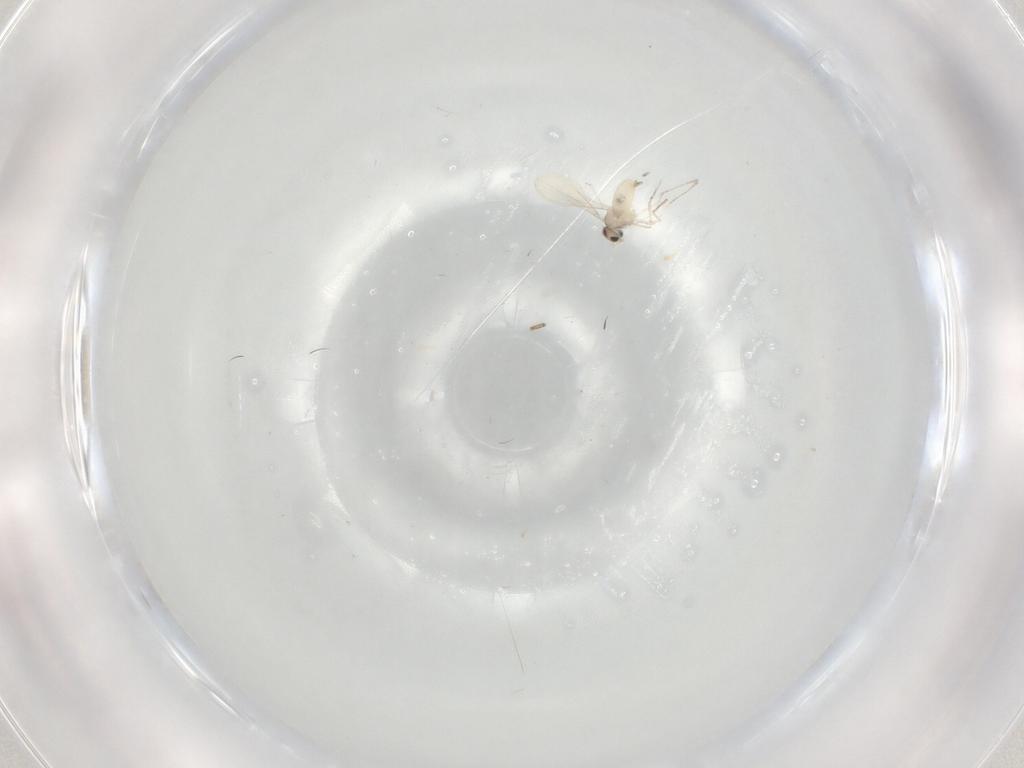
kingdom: Animalia
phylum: Arthropoda
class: Insecta
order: Diptera
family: Cecidomyiidae
